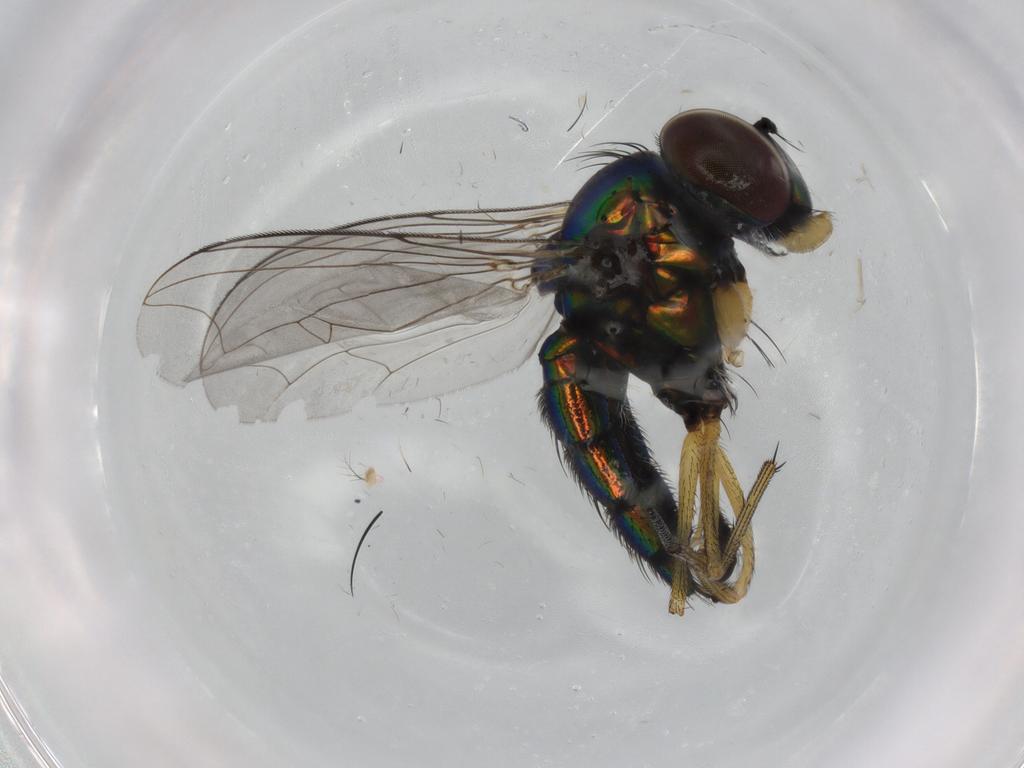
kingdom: Animalia
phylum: Arthropoda
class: Insecta
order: Diptera
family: Dolichopodidae
